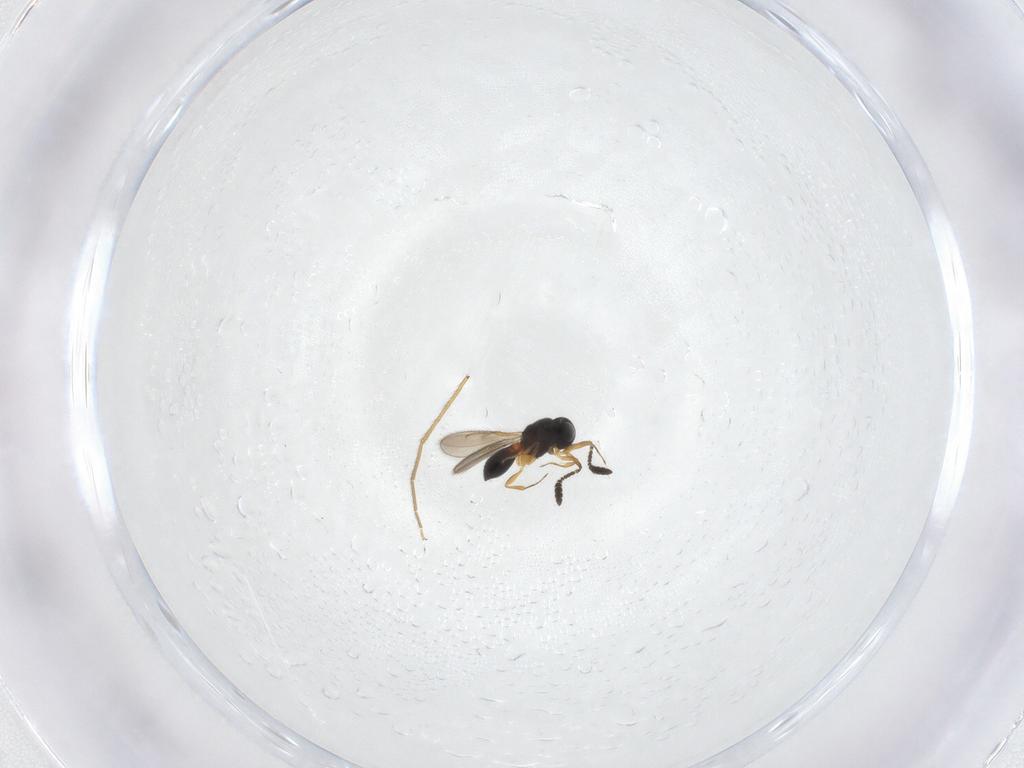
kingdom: Animalia
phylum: Arthropoda
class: Insecta
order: Hymenoptera
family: Scelionidae
